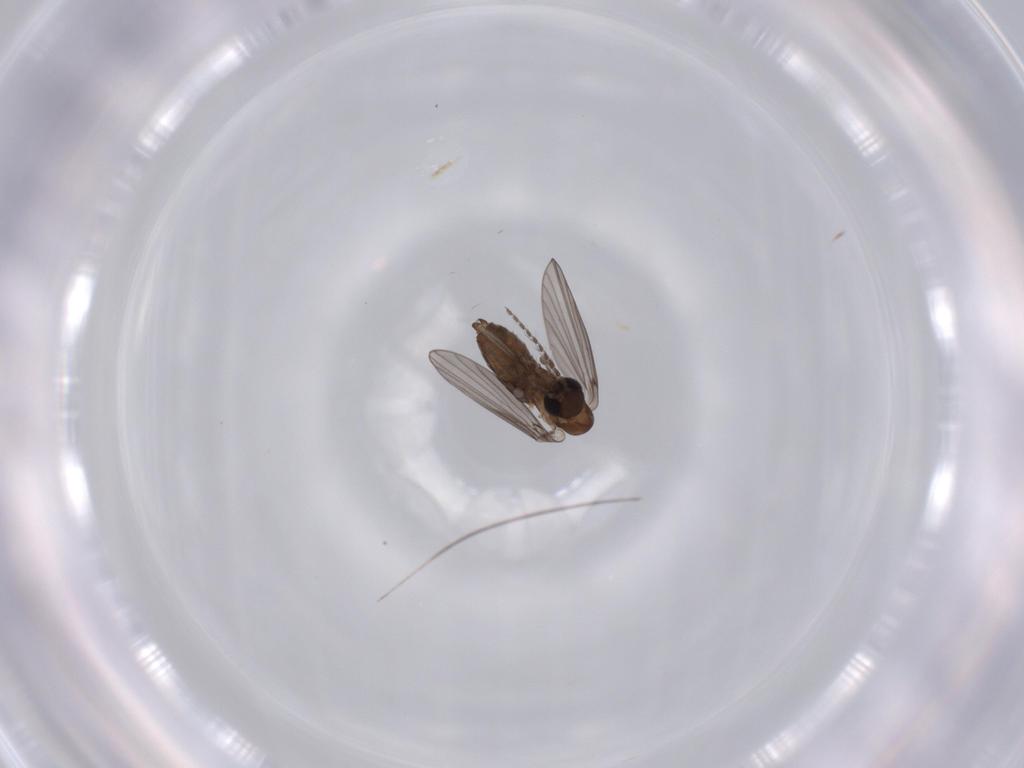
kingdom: Animalia
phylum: Arthropoda
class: Insecta
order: Diptera
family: Psychodidae
